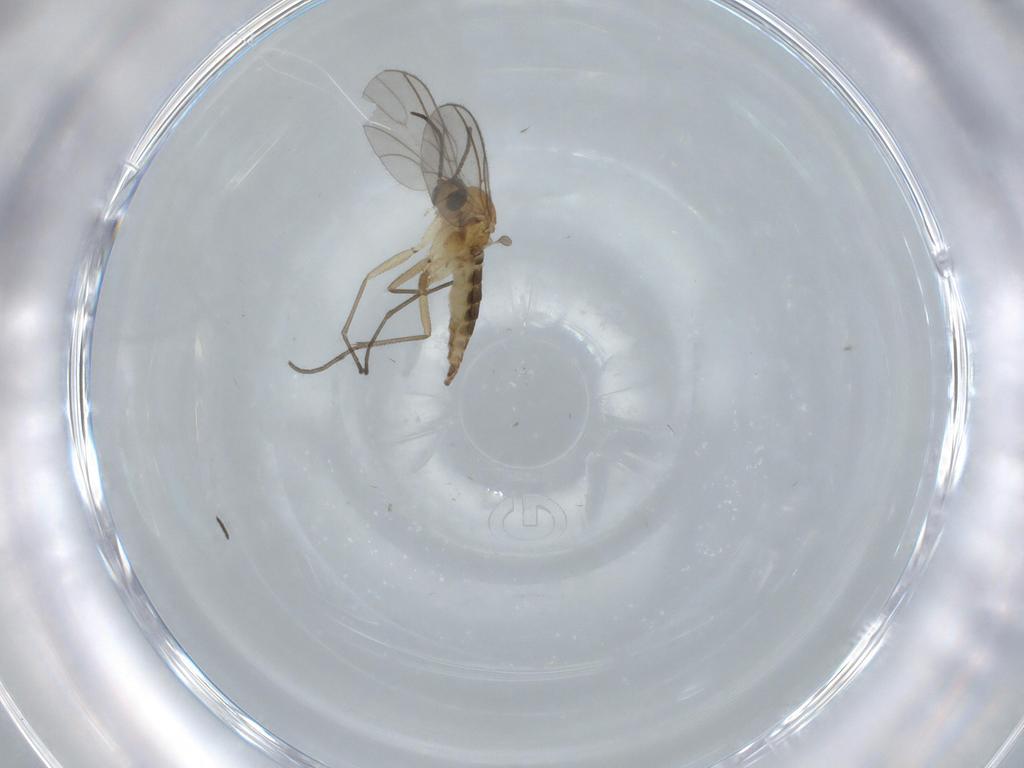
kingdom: Animalia
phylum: Arthropoda
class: Insecta
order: Diptera
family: Sciaridae
